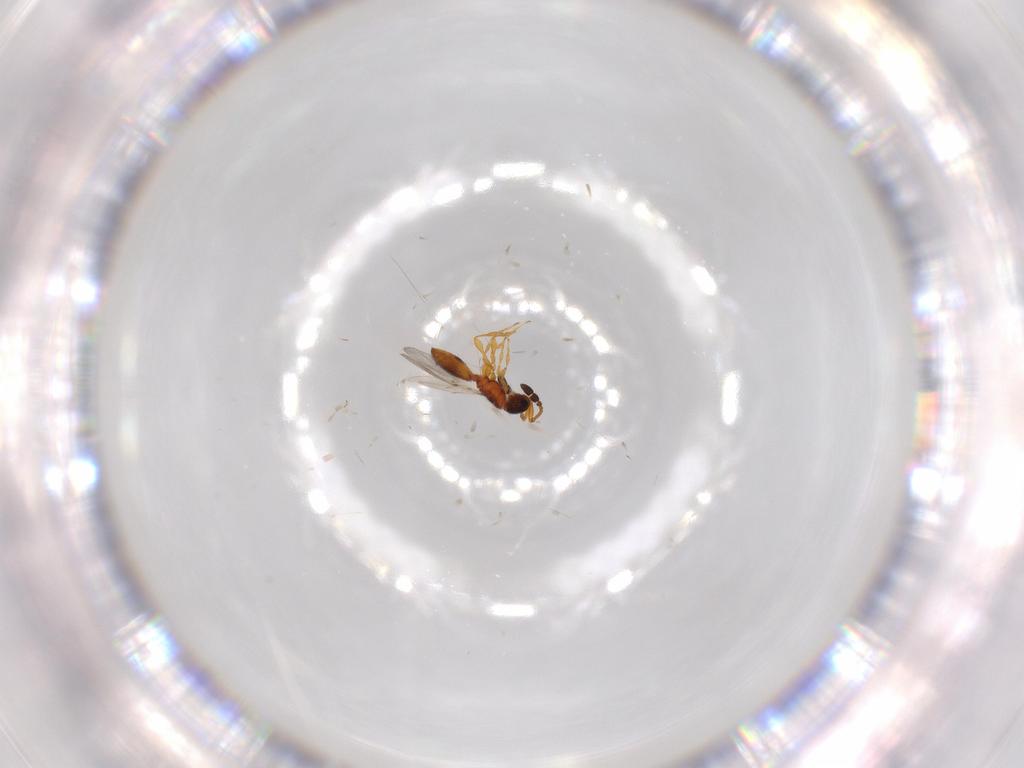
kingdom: Animalia
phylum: Arthropoda
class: Insecta
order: Hymenoptera
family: Diapriidae
